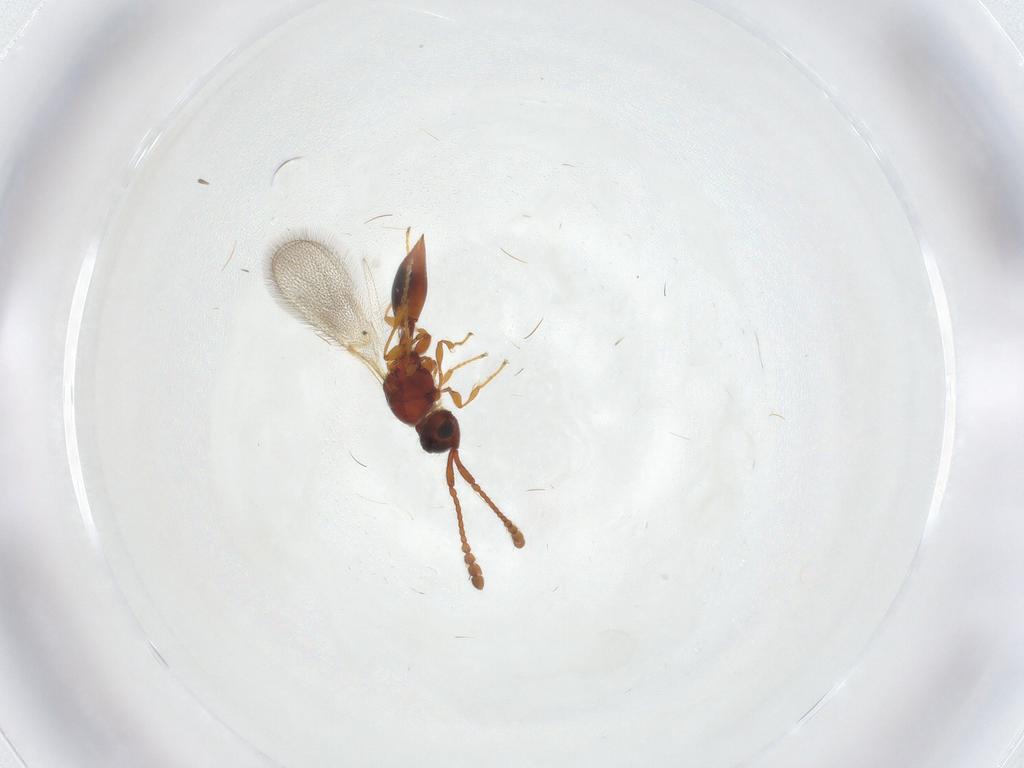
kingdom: Animalia
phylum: Arthropoda
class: Insecta
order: Hymenoptera
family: Diapriidae
